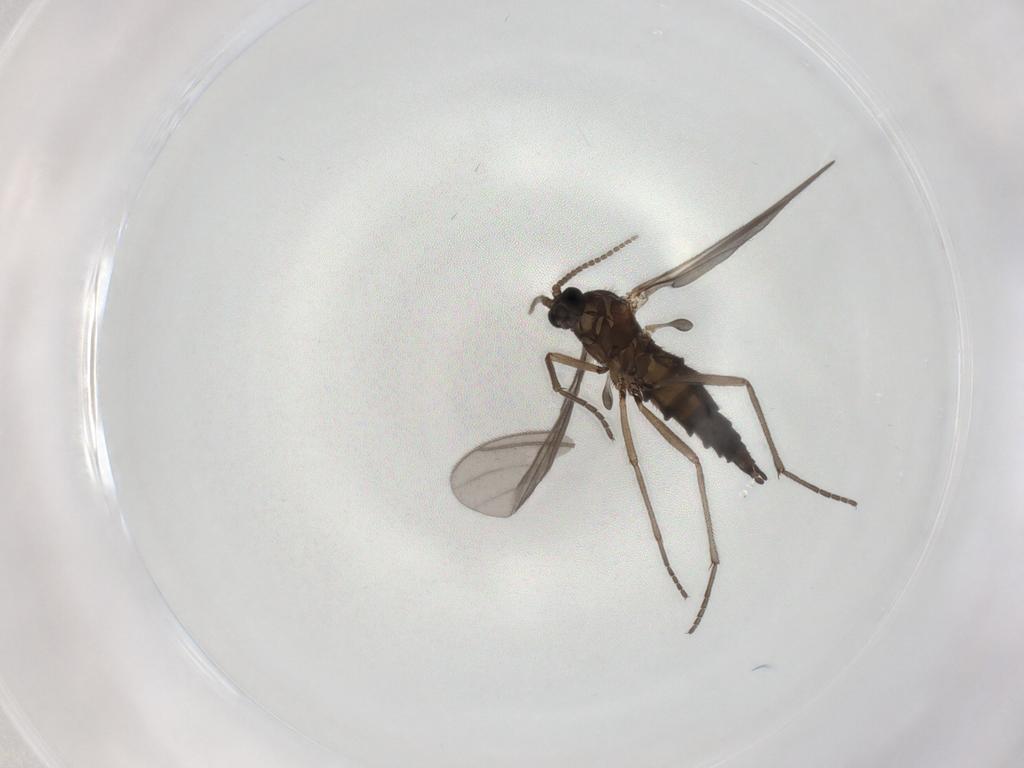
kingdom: Animalia
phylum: Arthropoda
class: Insecta
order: Diptera
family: Sciaridae
